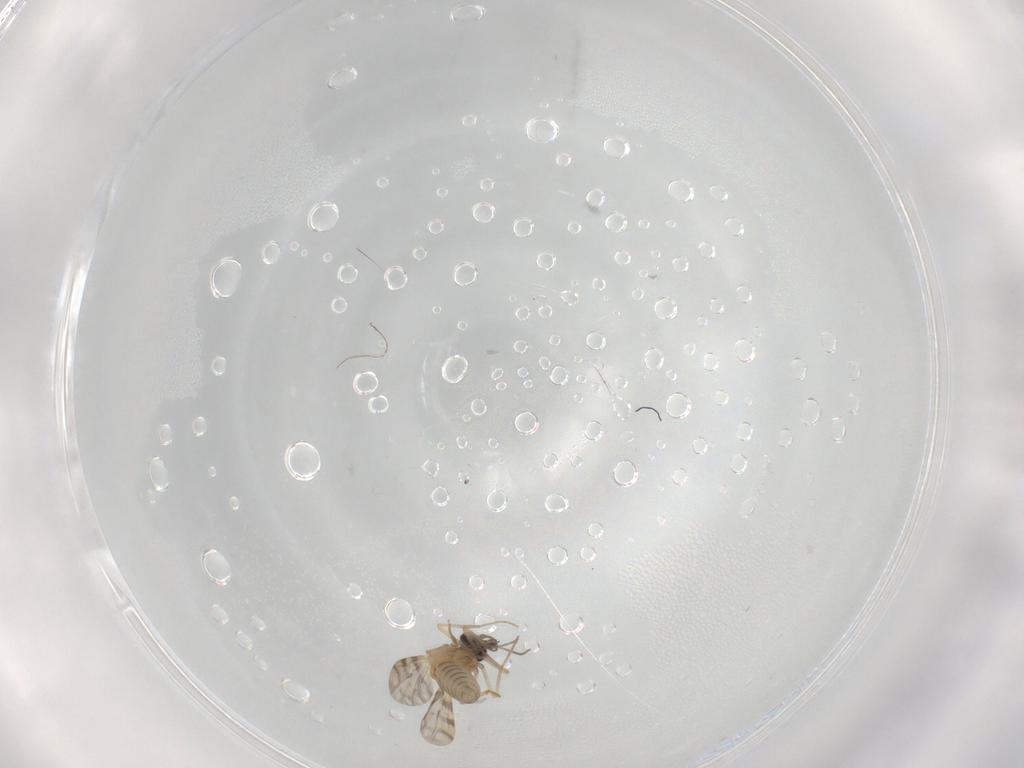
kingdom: Animalia
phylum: Arthropoda
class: Insecta
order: Diptera
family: Ceratopogonidae
